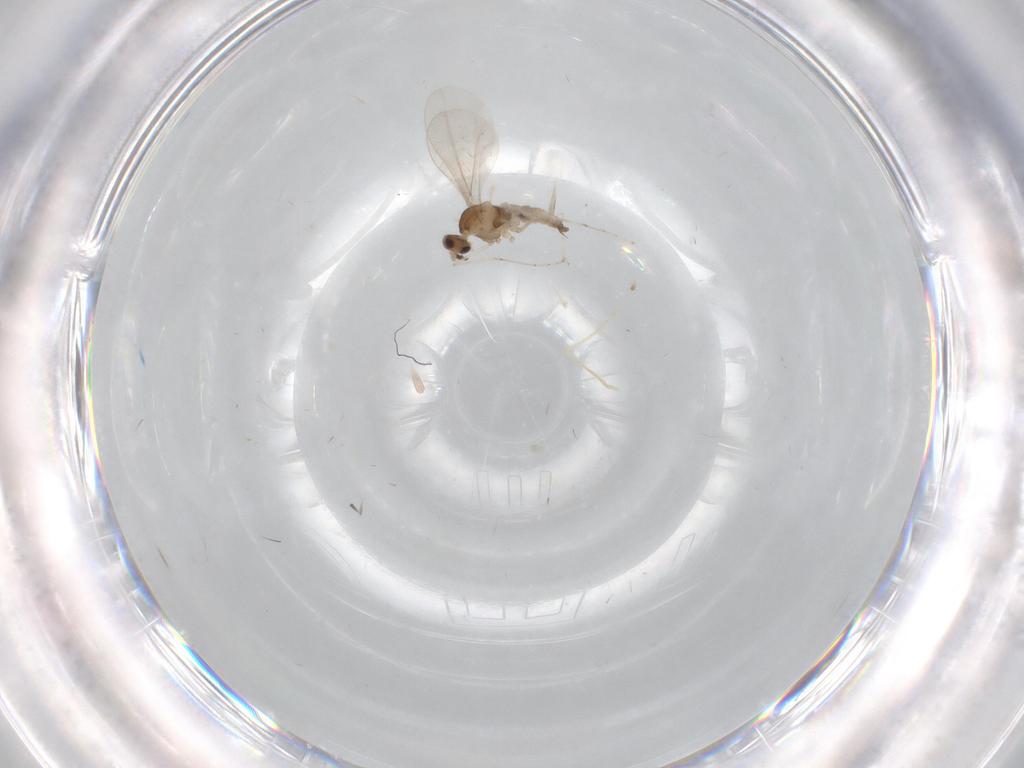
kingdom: Animalia
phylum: Arthropoda
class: Insecta
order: Diptera
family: Cecidomyiidae
